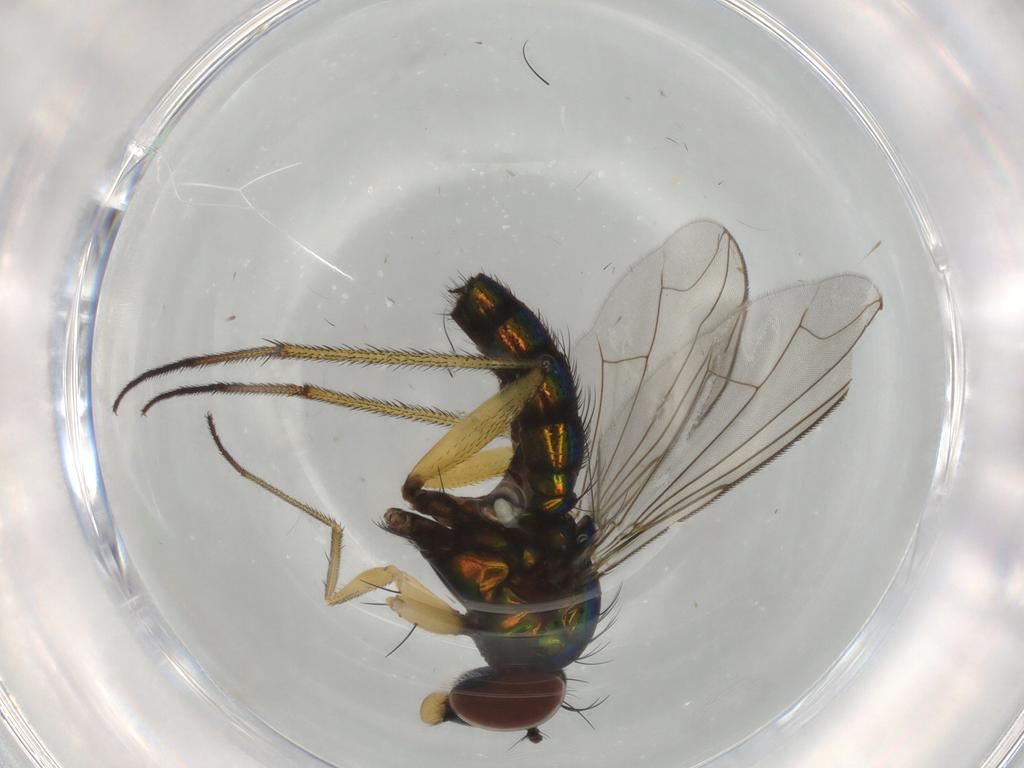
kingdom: Animalia
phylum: Arthropoda
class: Insecta
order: Diptera
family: Dolichopodidae
